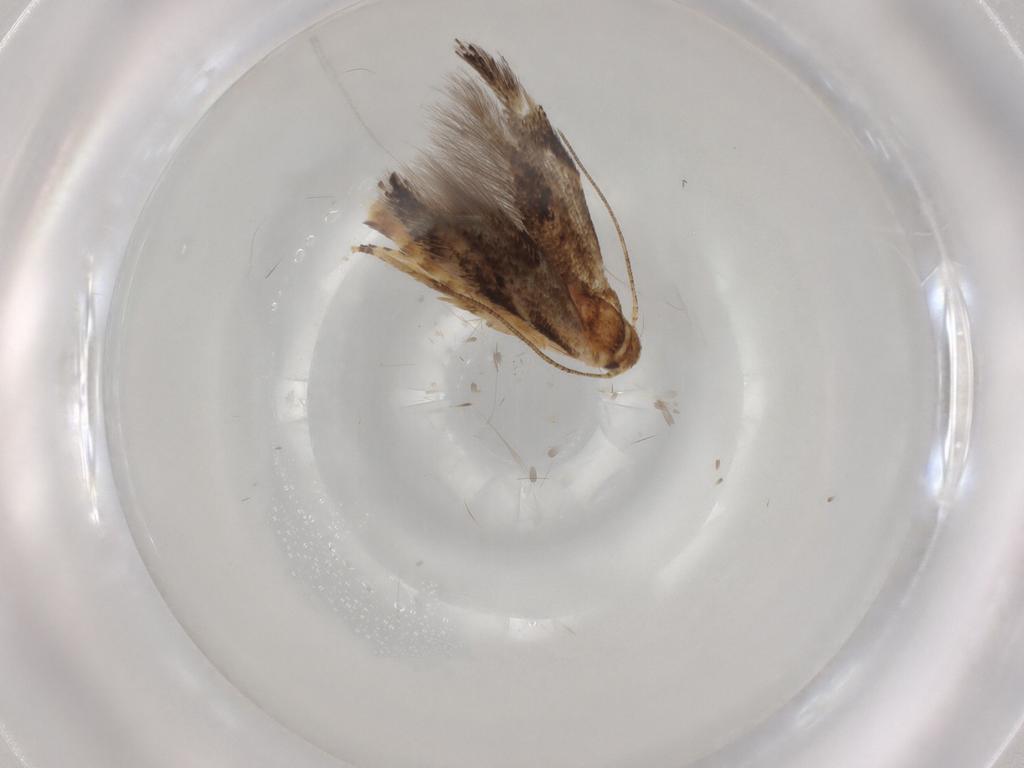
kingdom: Animalia
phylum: Arthropoda
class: Insecta
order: Lepidoptera
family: Elachistidae
